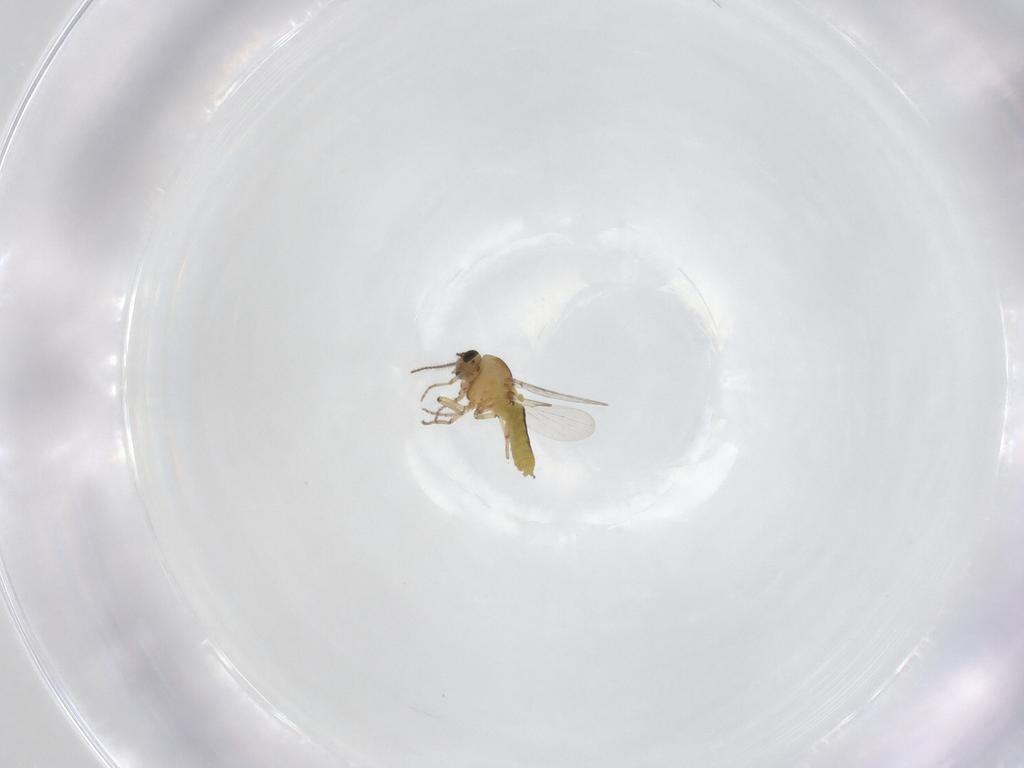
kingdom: Animalia
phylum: Arthropoda
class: Insecta
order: Diptera
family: Ceratopogonidae
